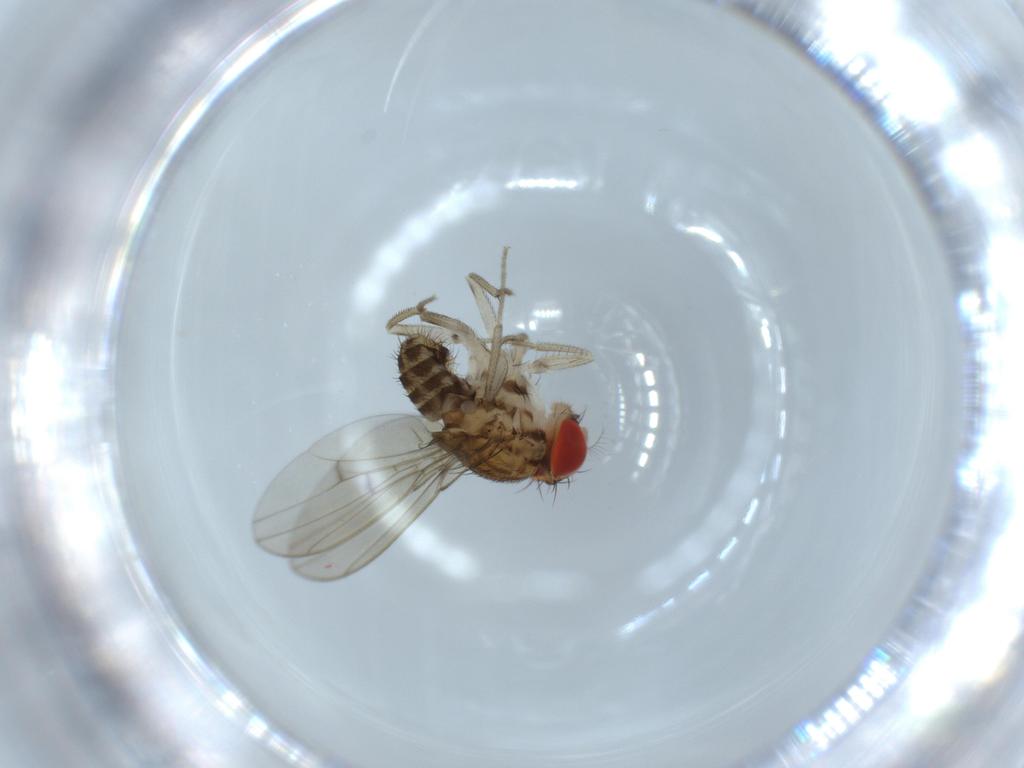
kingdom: Animalia
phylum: Arthropoda
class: Insecta
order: Diptera
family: Drosophilidae
